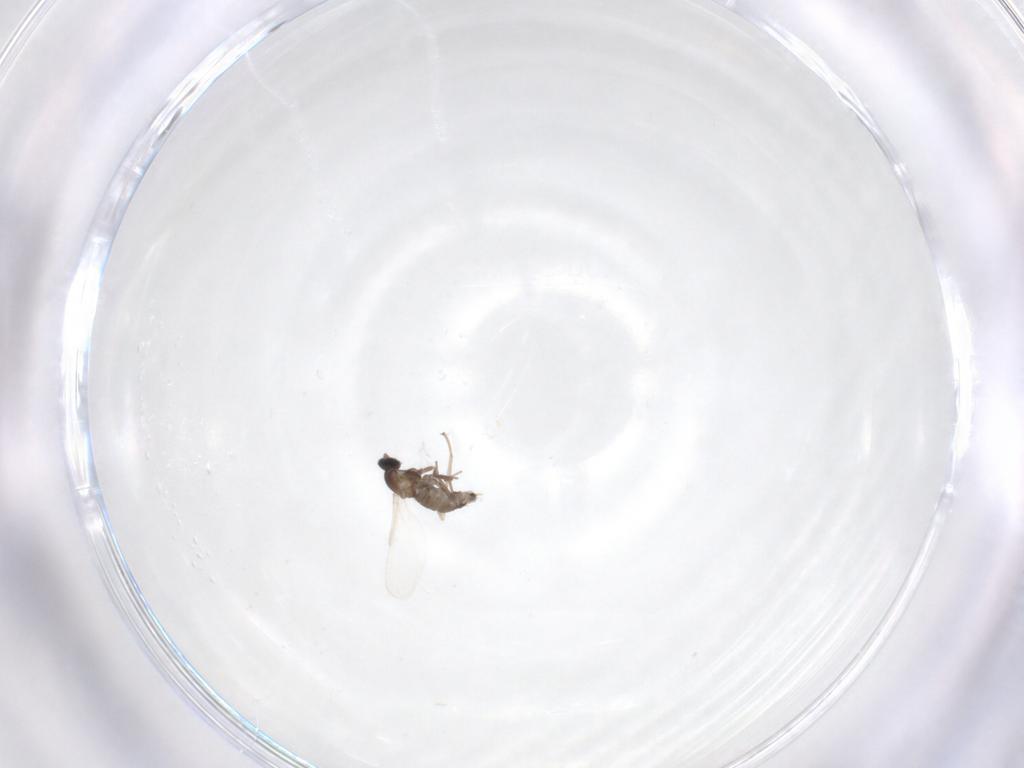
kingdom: Animalia
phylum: Arthropoda
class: Insecta
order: Diptera
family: Cecidomyiidae
